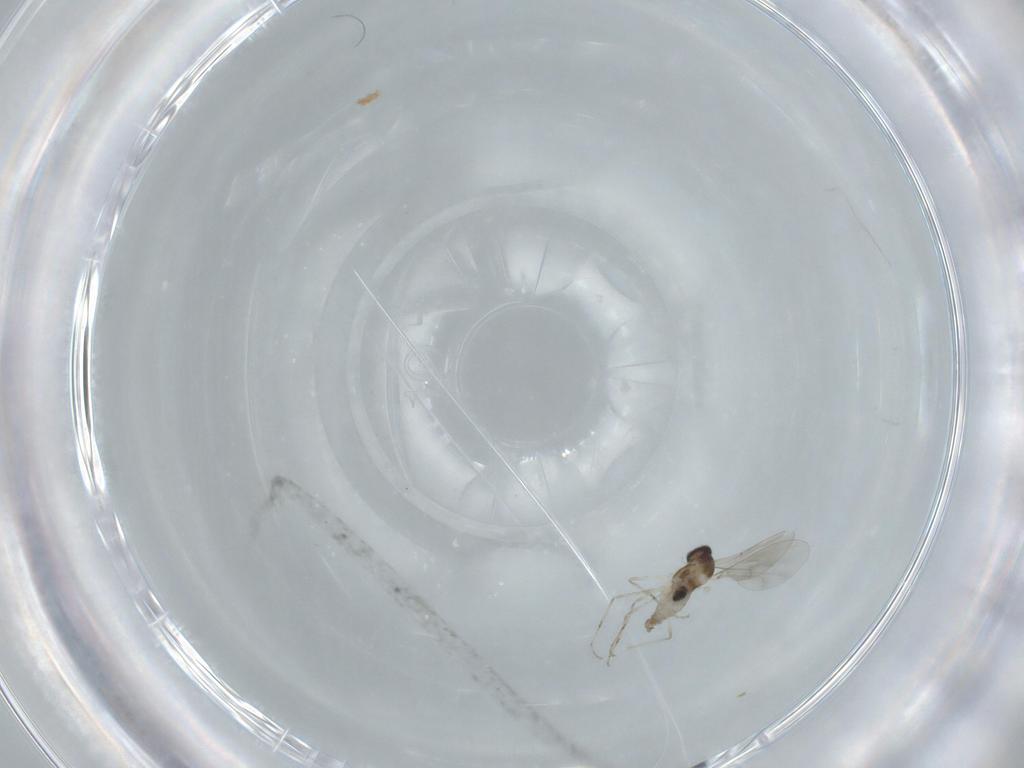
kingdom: Animalia
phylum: Arthropoda
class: Insecta
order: Diptera
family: Cecidomyiidae
